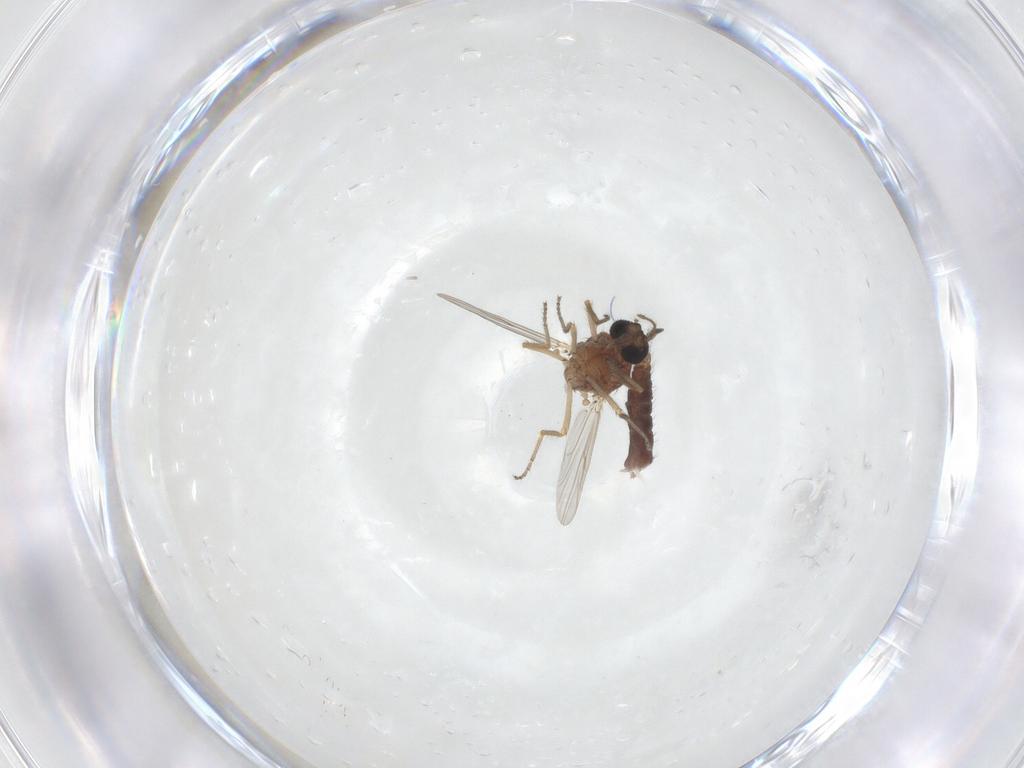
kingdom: Animalia
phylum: Arthropoda
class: Insecta
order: Diptera
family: Ceratopogonidae
